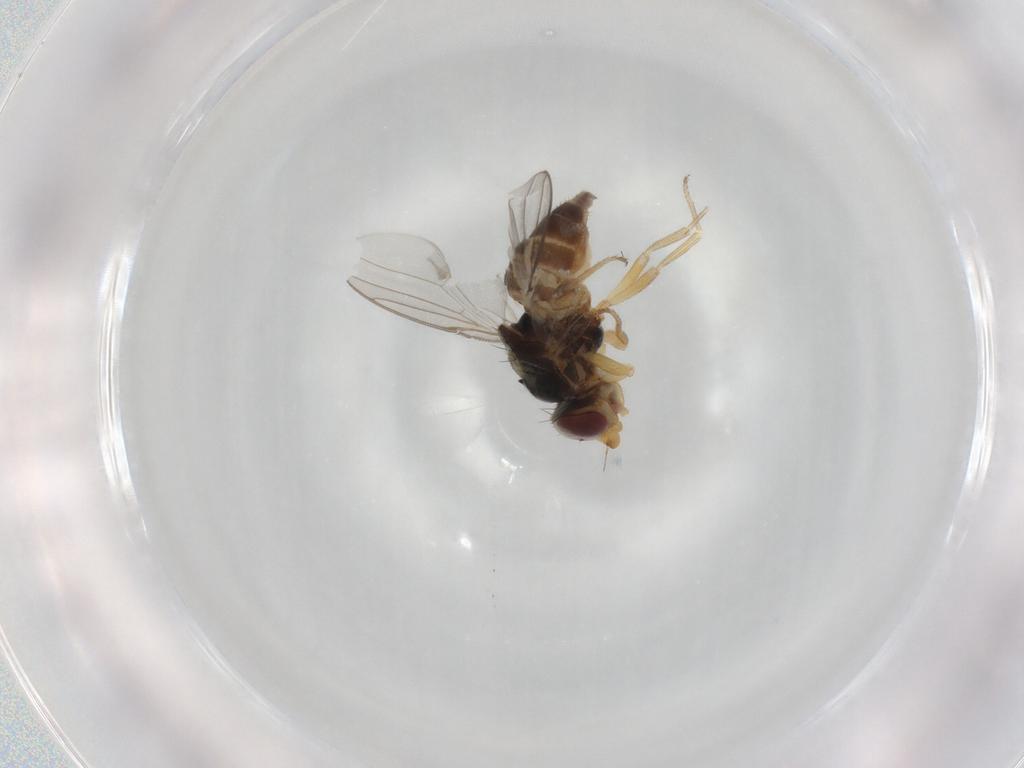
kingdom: Animalia
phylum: Arthropoda
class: Insecta
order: Diptera
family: Chloropidae
